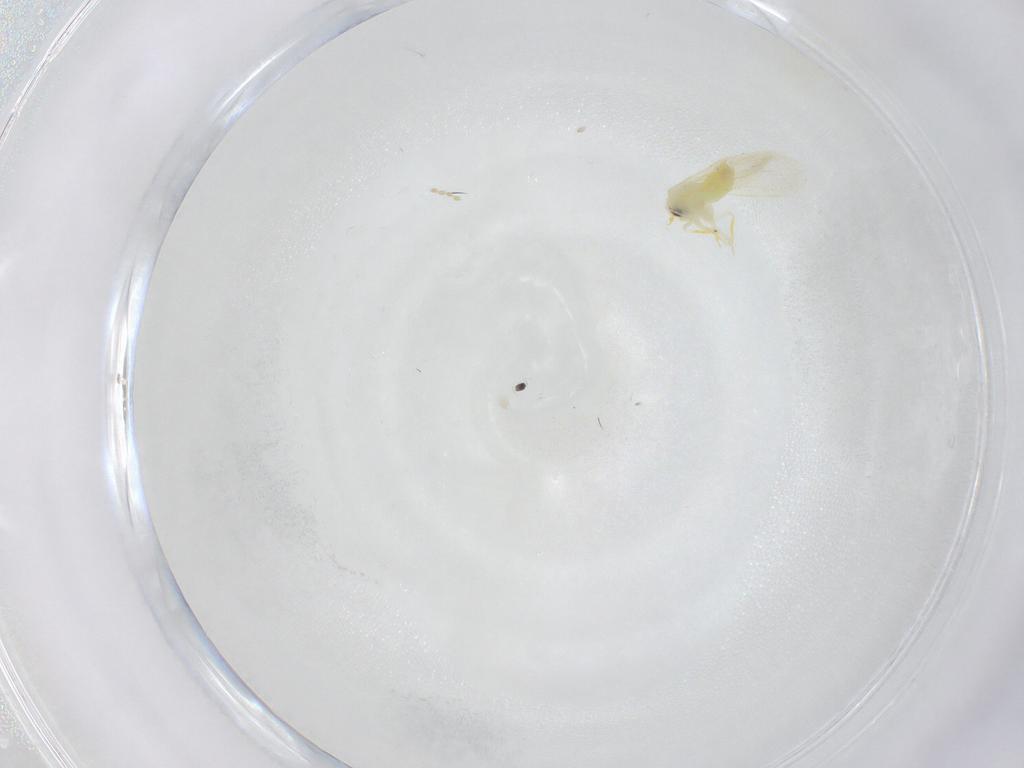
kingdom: Animalia
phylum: Arthropoda
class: Insecta
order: Hemiptera
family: Aleyrodidae
